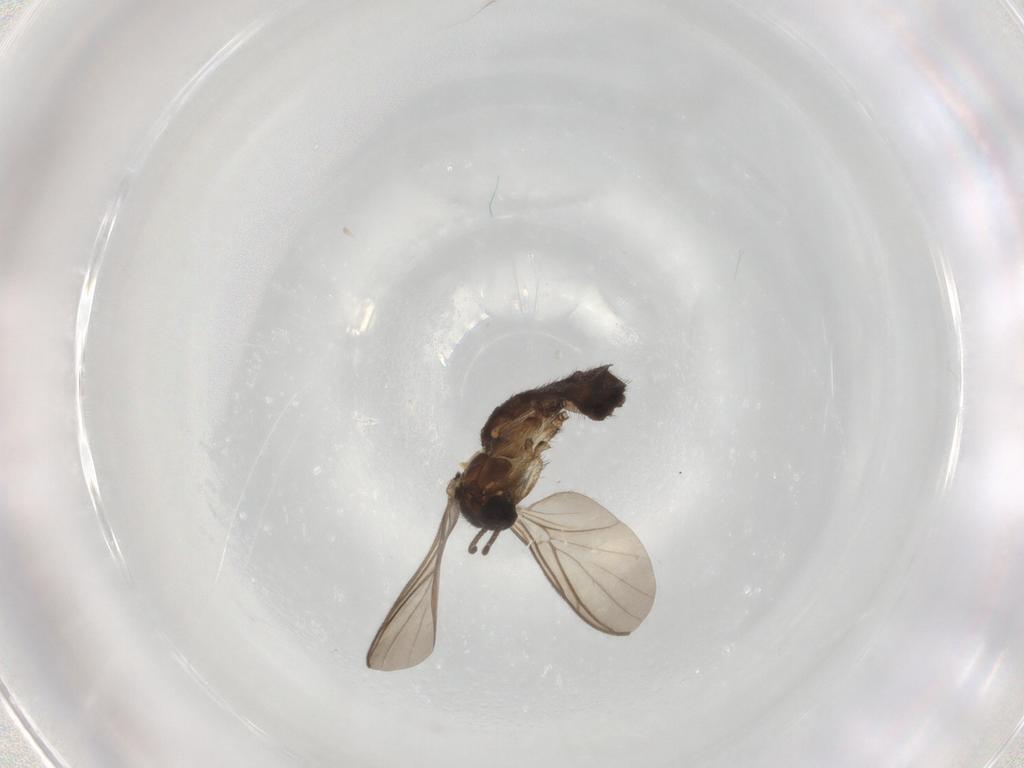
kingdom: Animalia
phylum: Arthropoda
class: Insecta
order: Diptera
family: Keroplatidae
